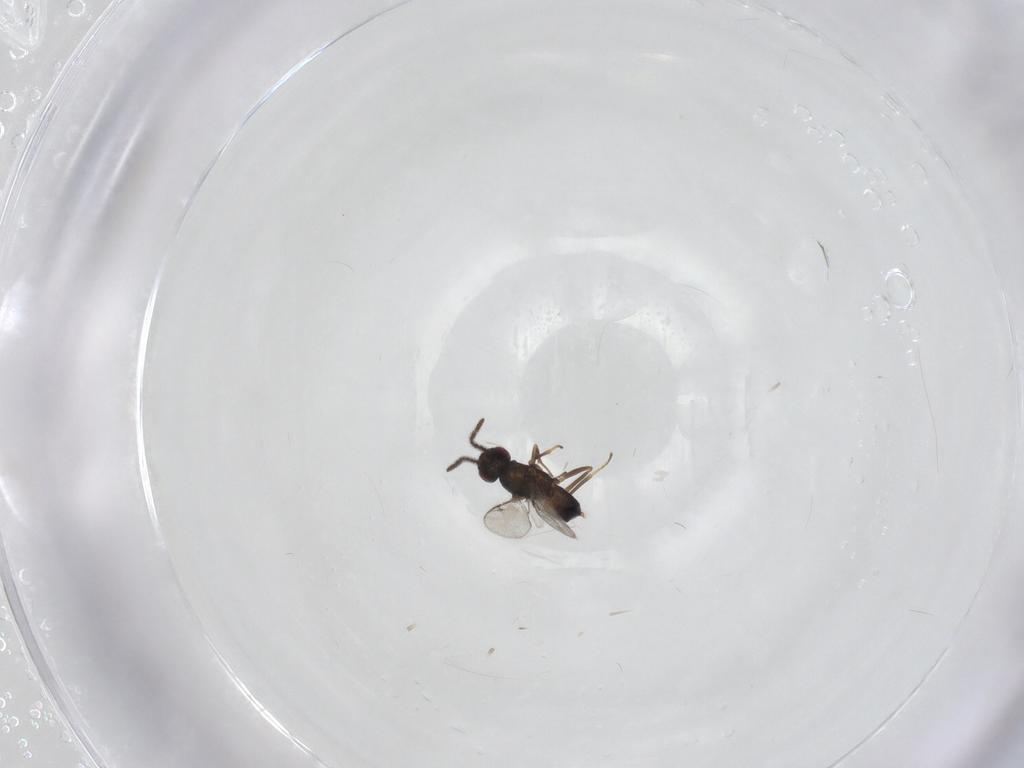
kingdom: Animalia
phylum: Arthropoda
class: Insecta
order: Hymenoptera
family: Encyrtidae
